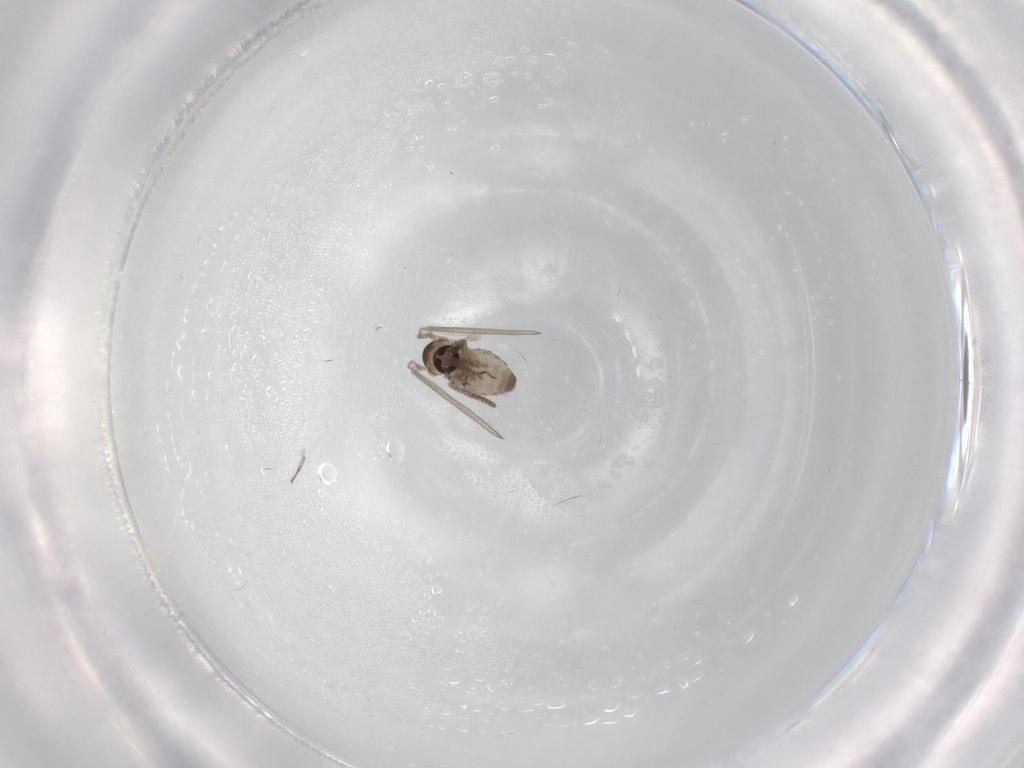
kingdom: Animalia
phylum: Arthropoda
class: Insecta
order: Diptera
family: Psychodidae
